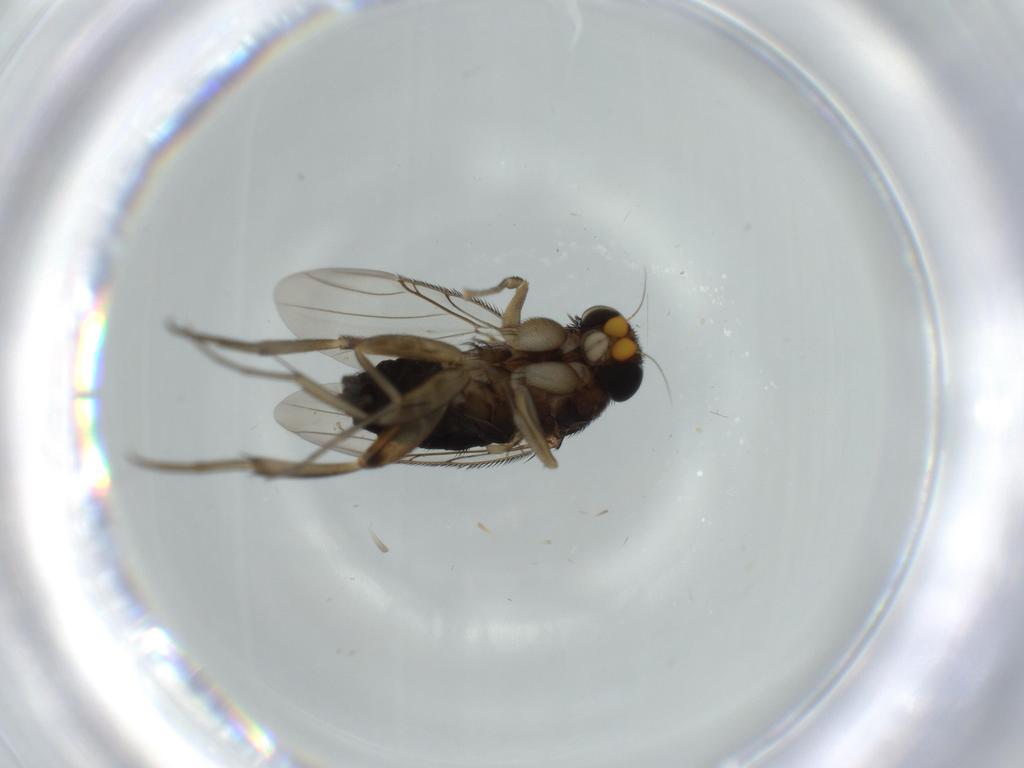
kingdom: Animalia
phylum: Arthropoda
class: Insecta
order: Diptera
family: Phoridae
